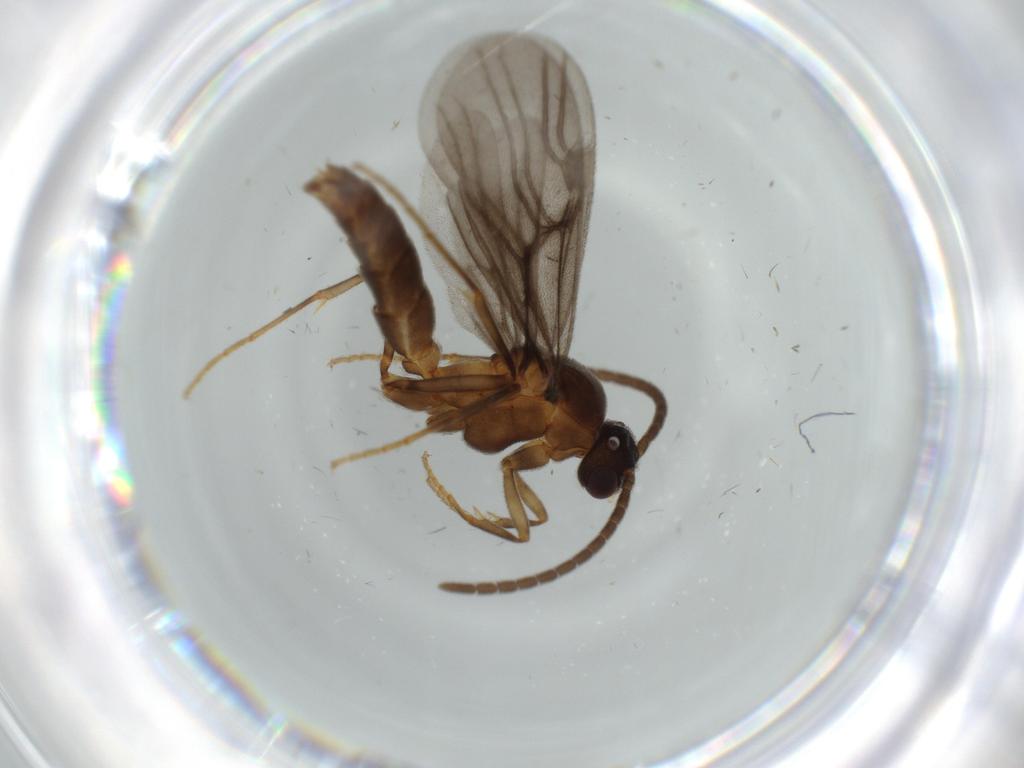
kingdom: Animalia
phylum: Arthropoda
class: Insecta
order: Hymenoptera
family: Formicidae
